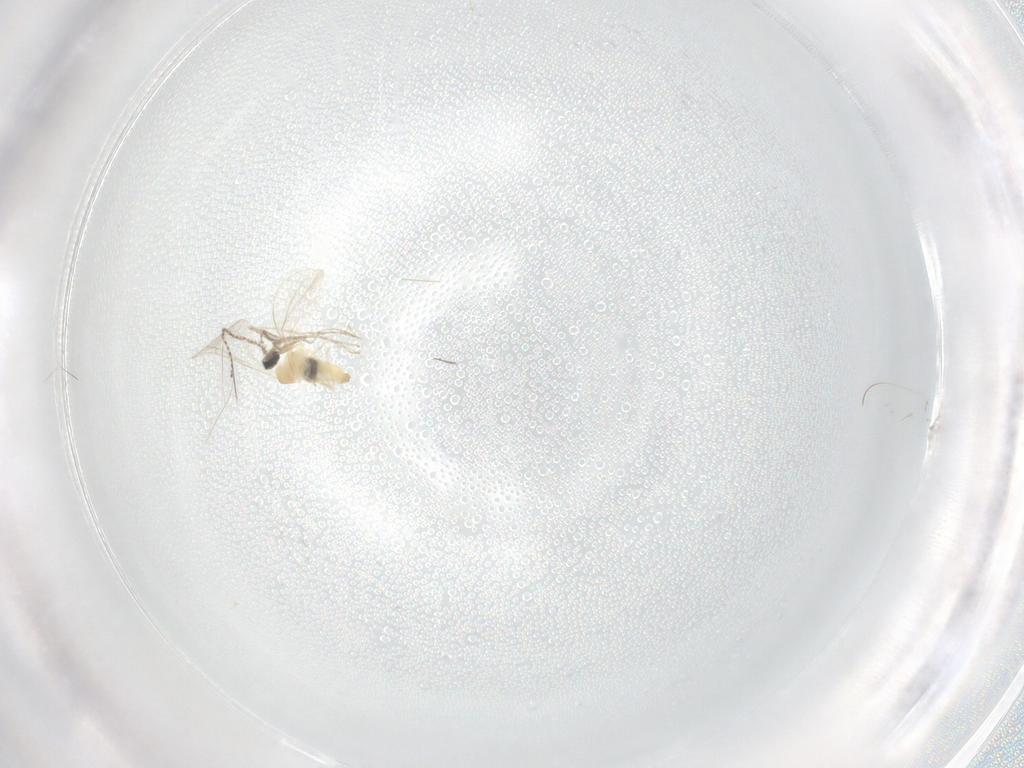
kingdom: Animalia
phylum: Arthropoda
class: Insecta
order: Diptera
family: Cecidomyiidae
